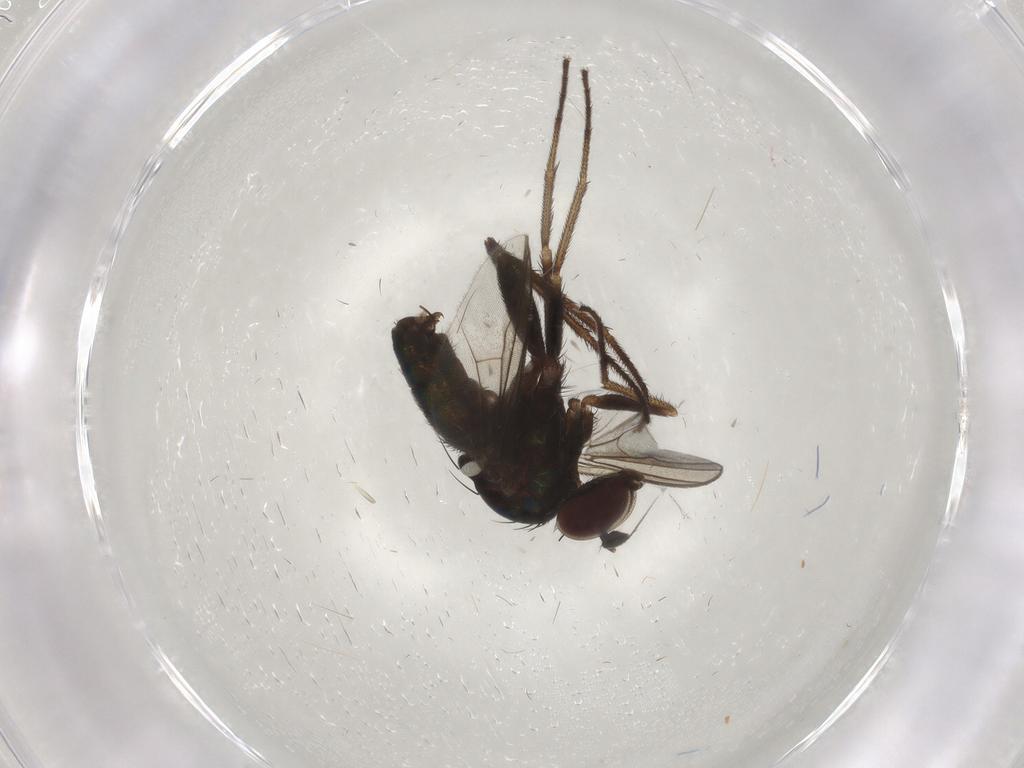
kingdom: Animalia
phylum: Arthropoda
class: Insecta
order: Diptera
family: Dolichopodidae
